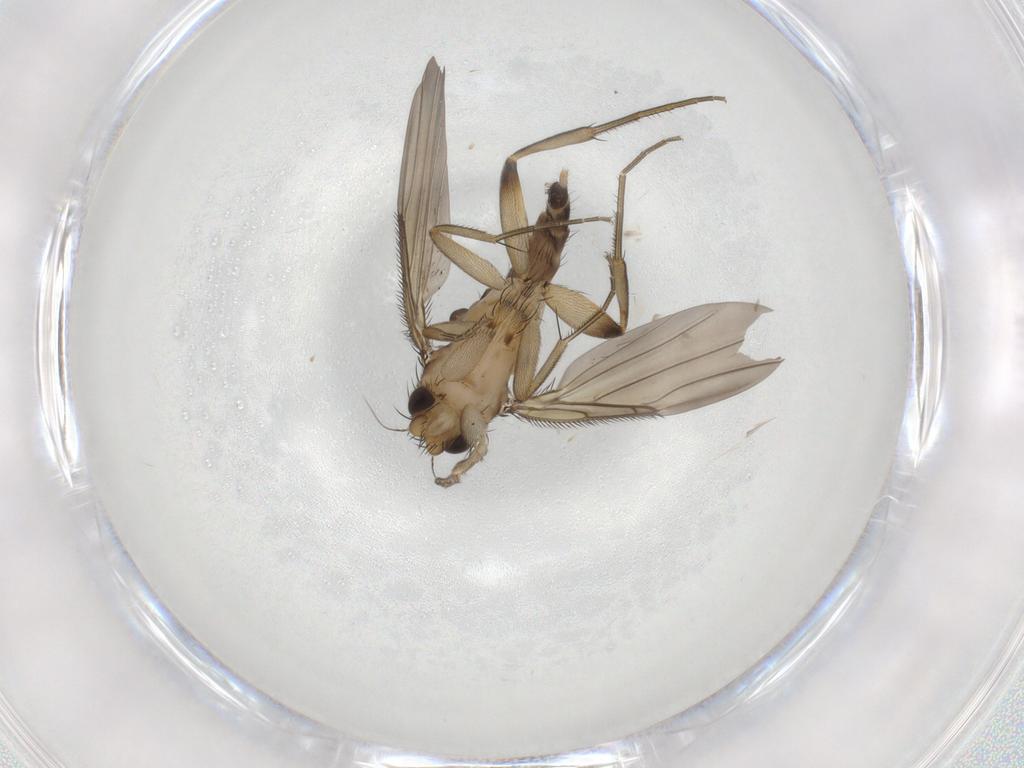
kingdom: Animalia
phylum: Arthropoda
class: Insecta
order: Diptera
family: Phoridae
